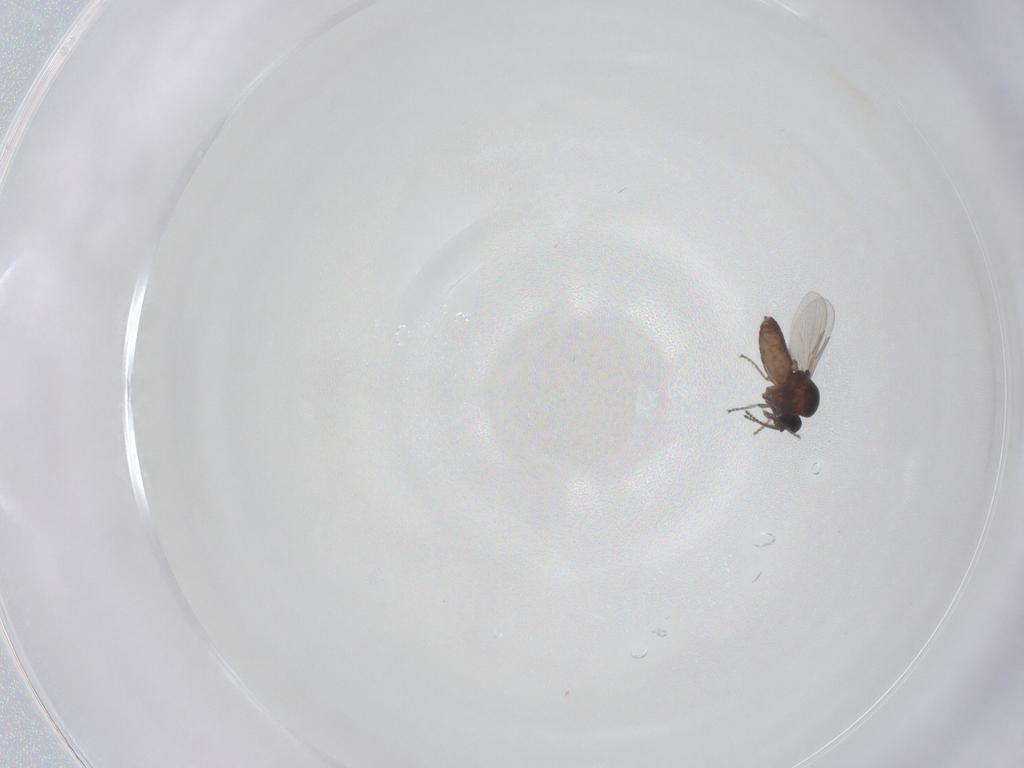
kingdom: Animalia
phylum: Arthropoda
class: Insecta
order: Diptera
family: Ceratopogonidae
